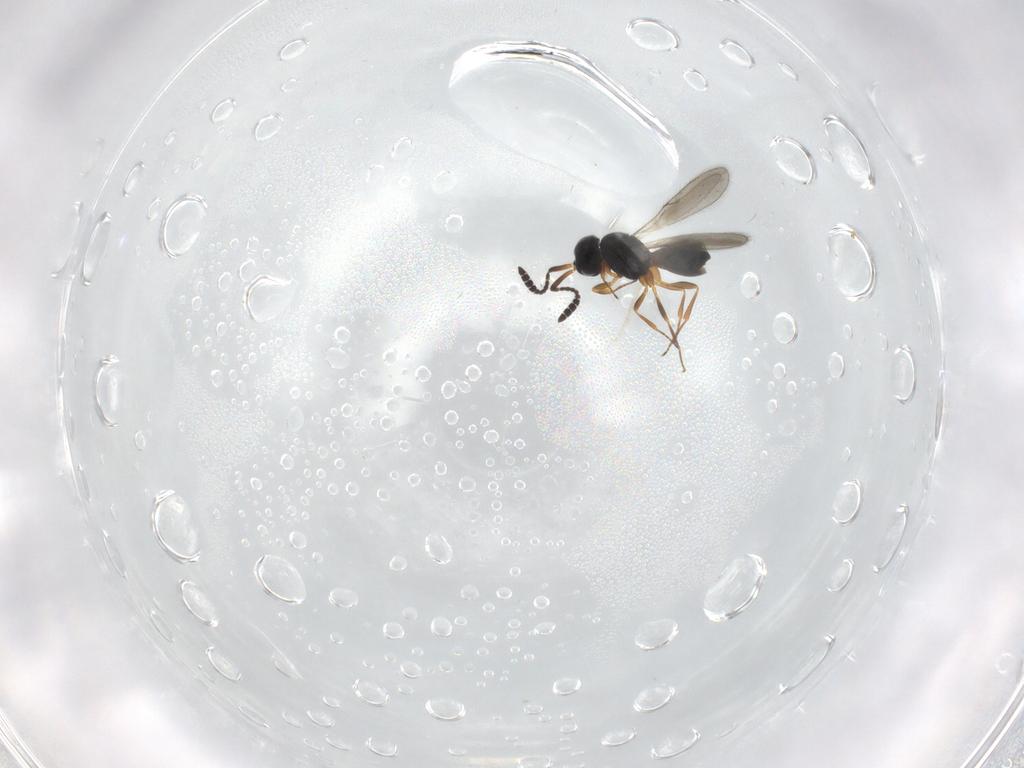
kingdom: Animalia
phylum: Arthropoda
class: Insecta
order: Hymenoptera
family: Scelionidae
